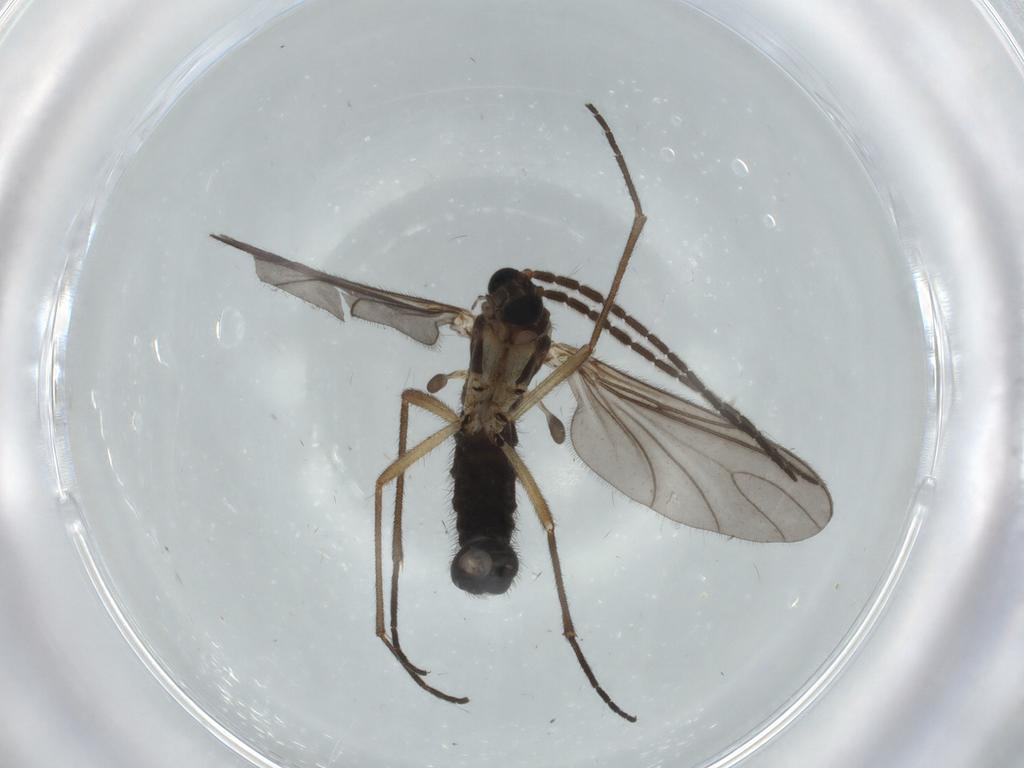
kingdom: Animalia
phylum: Arthropoda
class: Insecta
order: Diptera
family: Sciaridae
